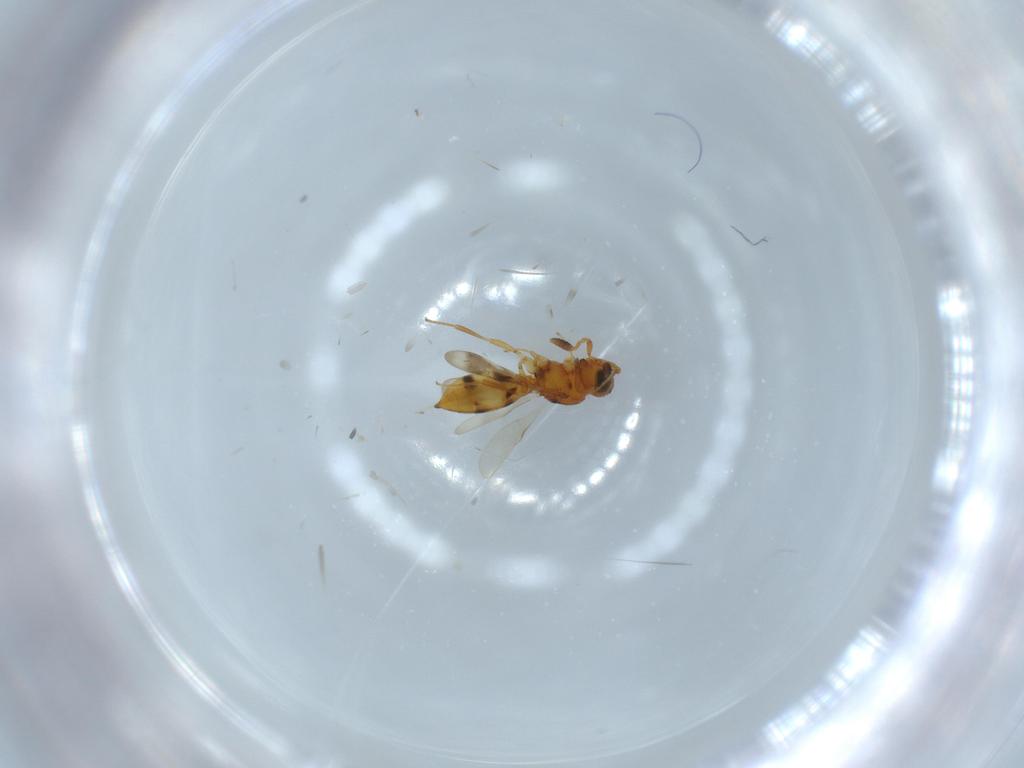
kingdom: Animalia
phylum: Arthropoda
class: Insecta
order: Hymenoptera
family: Scelionidae
